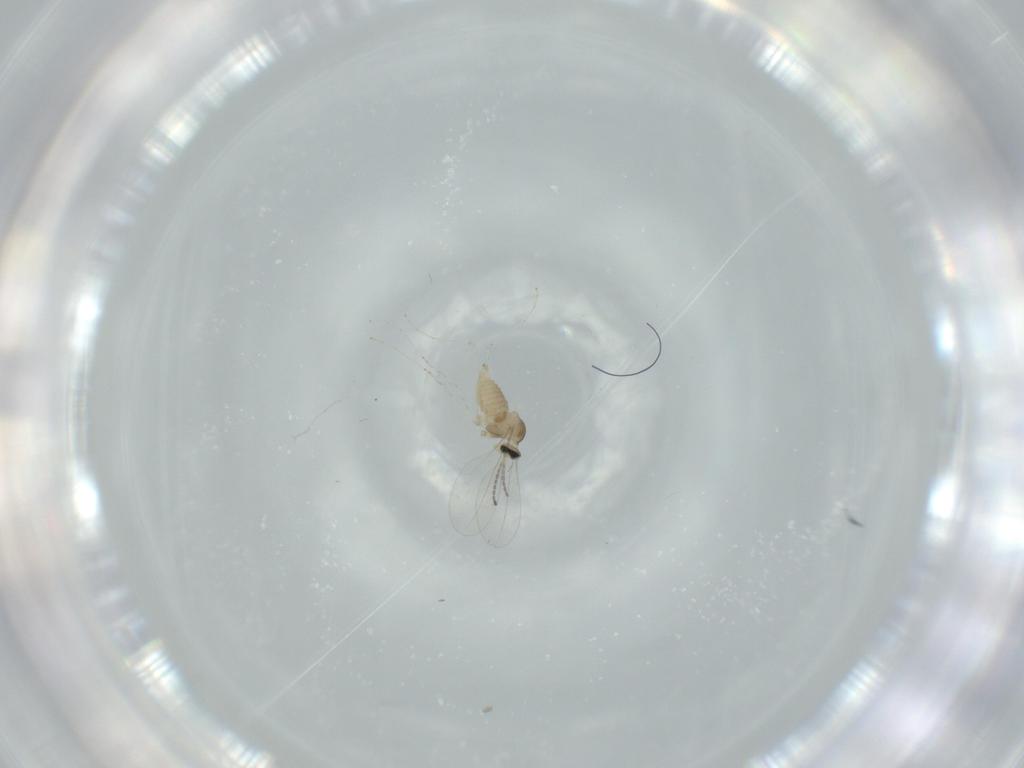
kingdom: Animalia
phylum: Arthropoda
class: Insecta
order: Diptera
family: Cecidomyiidae
